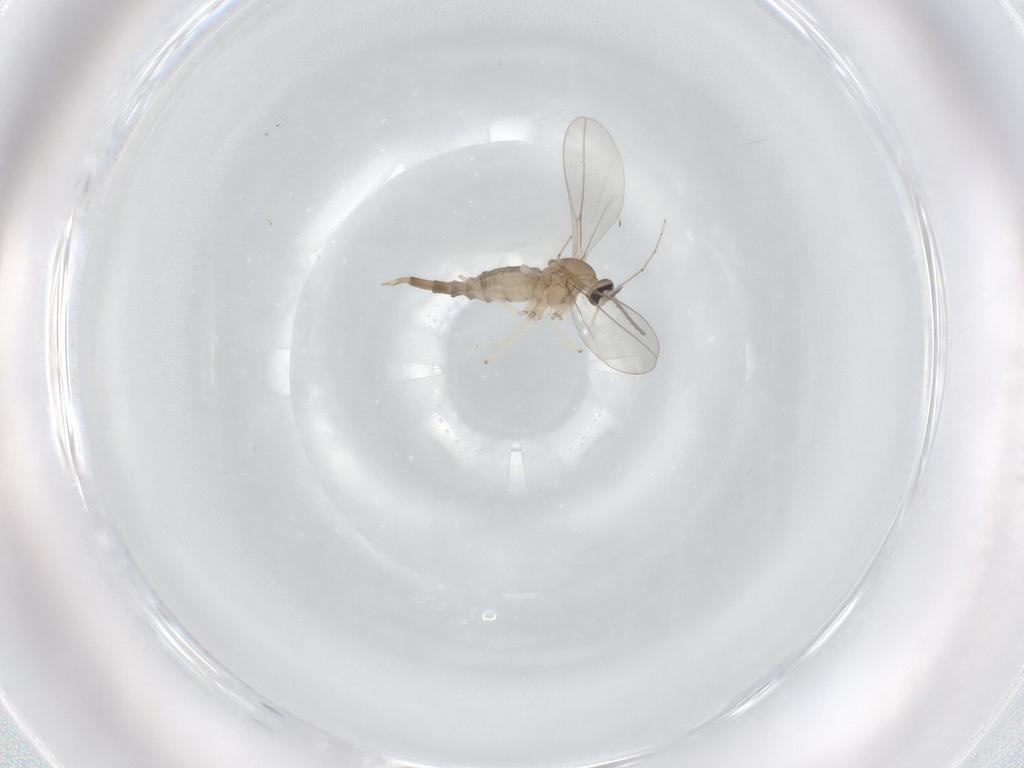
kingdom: Animalia
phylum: Arthropoda
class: Insecta
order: Diptera
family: Cecidomyiidae
